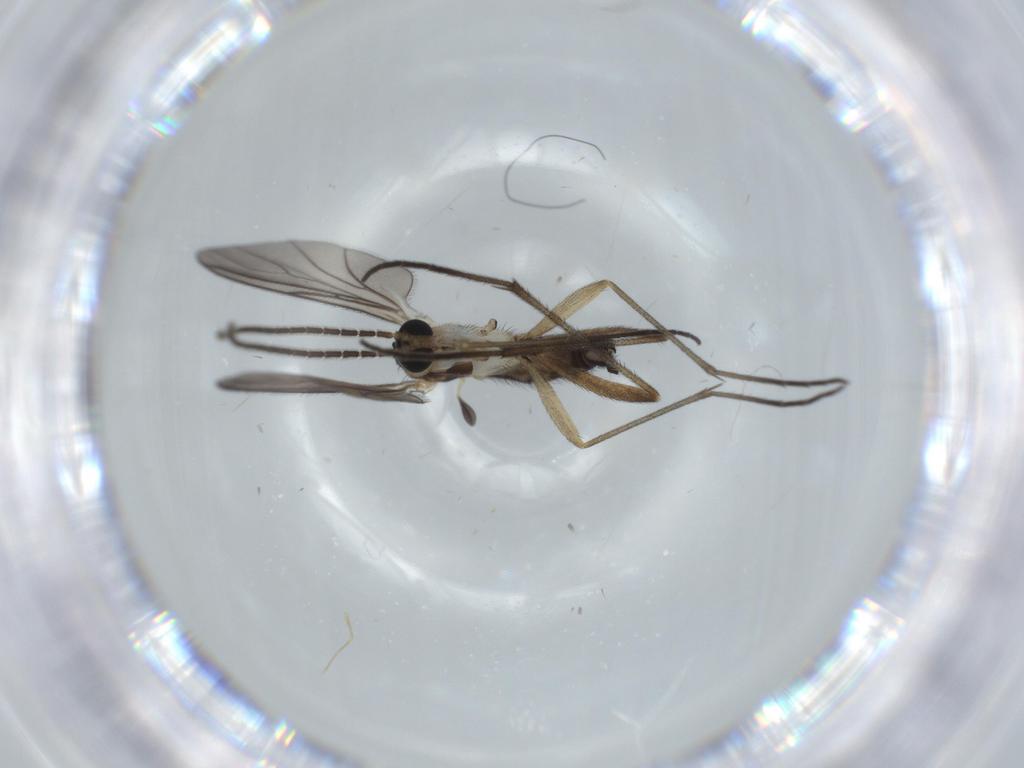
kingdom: Animalia
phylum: Arthropoda
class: Insecta
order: Diptera
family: Sciaridae
